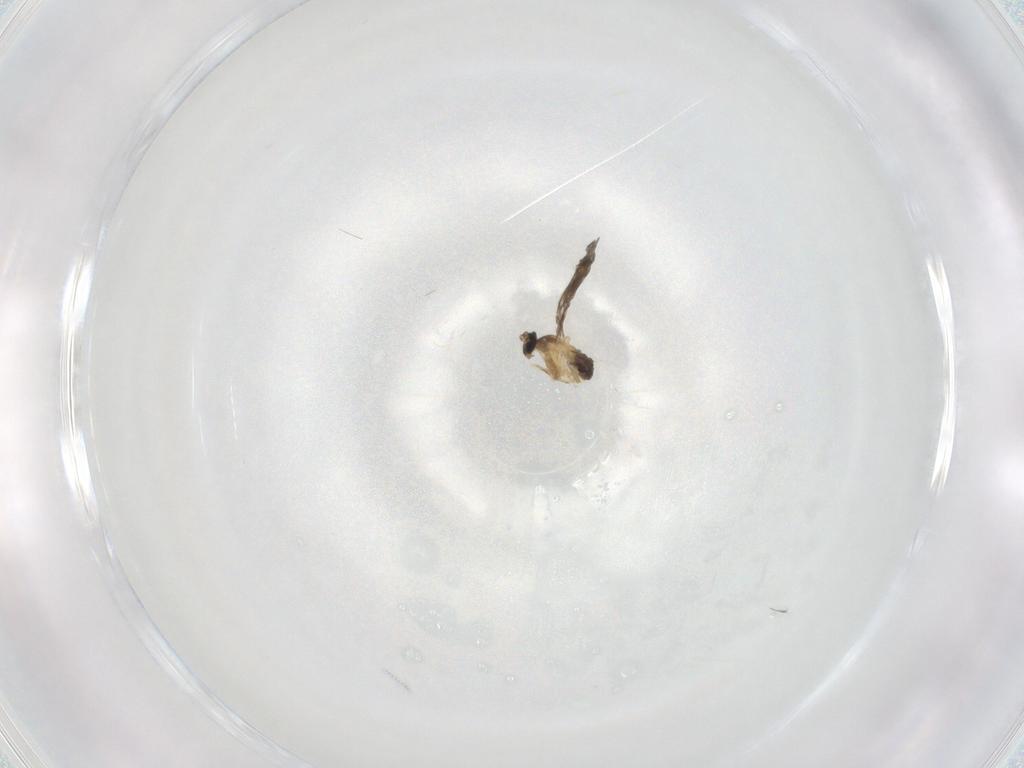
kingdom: Animalia
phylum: Arthropoda
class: Insecta
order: Diptera
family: Cecidomyiidae
